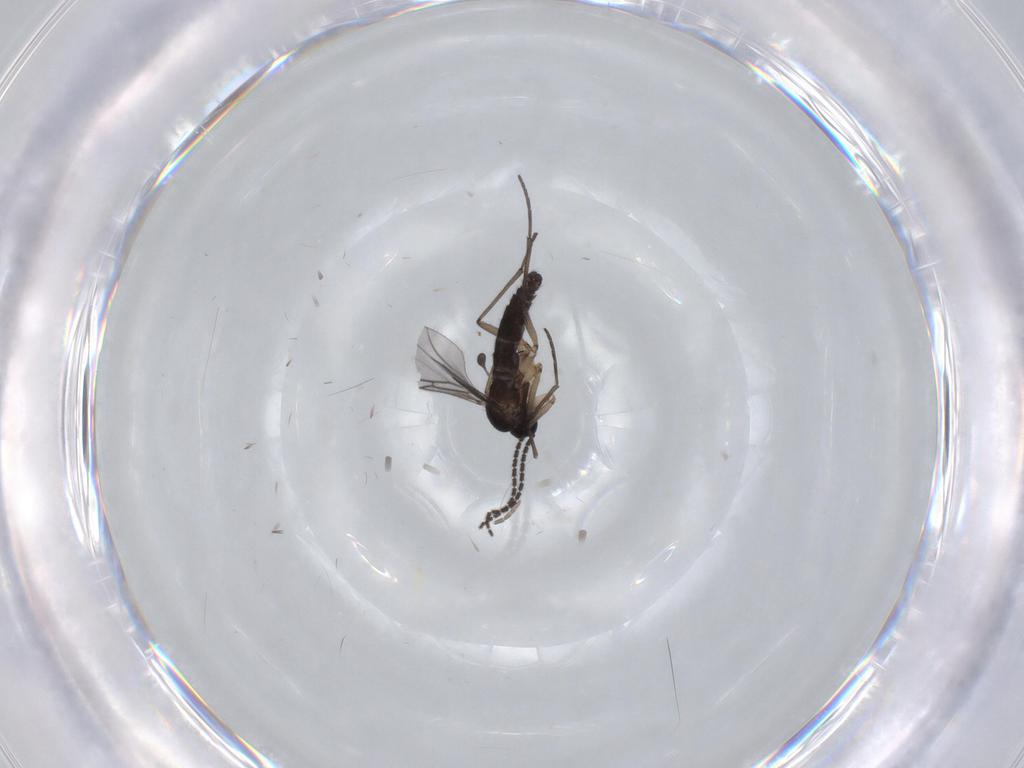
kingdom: Animalia
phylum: Arthropoda
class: Insecta
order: Diptera
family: Sciaridae
